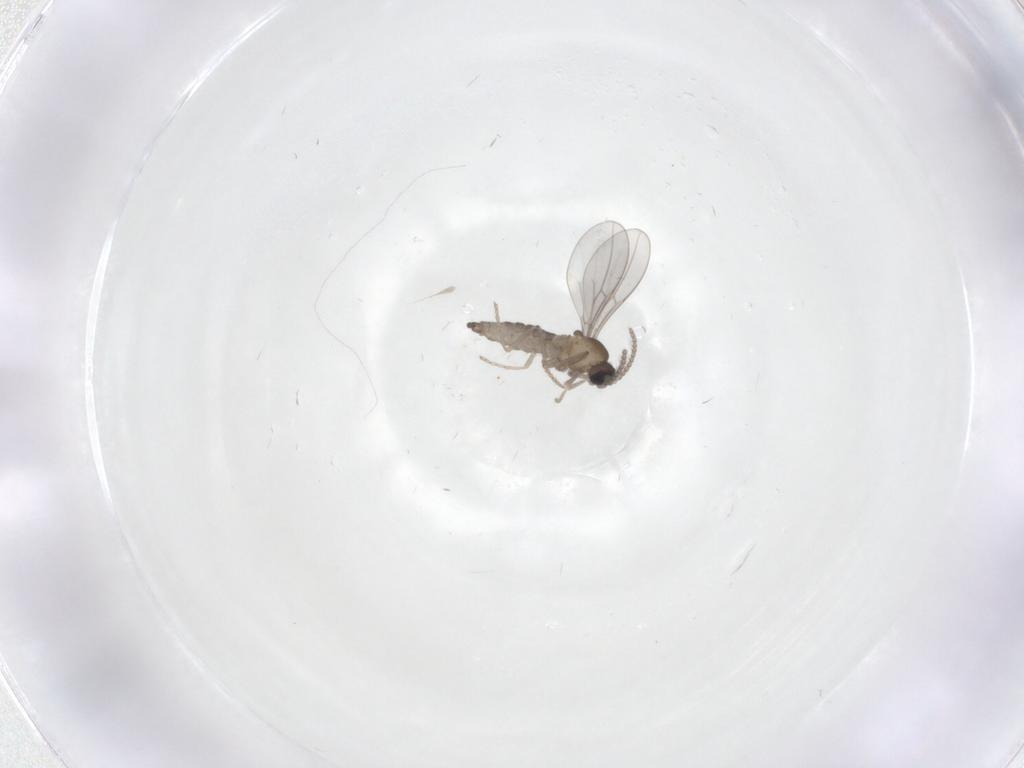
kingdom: Animalia
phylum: Arthropoda
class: Insecta
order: Diptera
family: Cecidomyiidae
